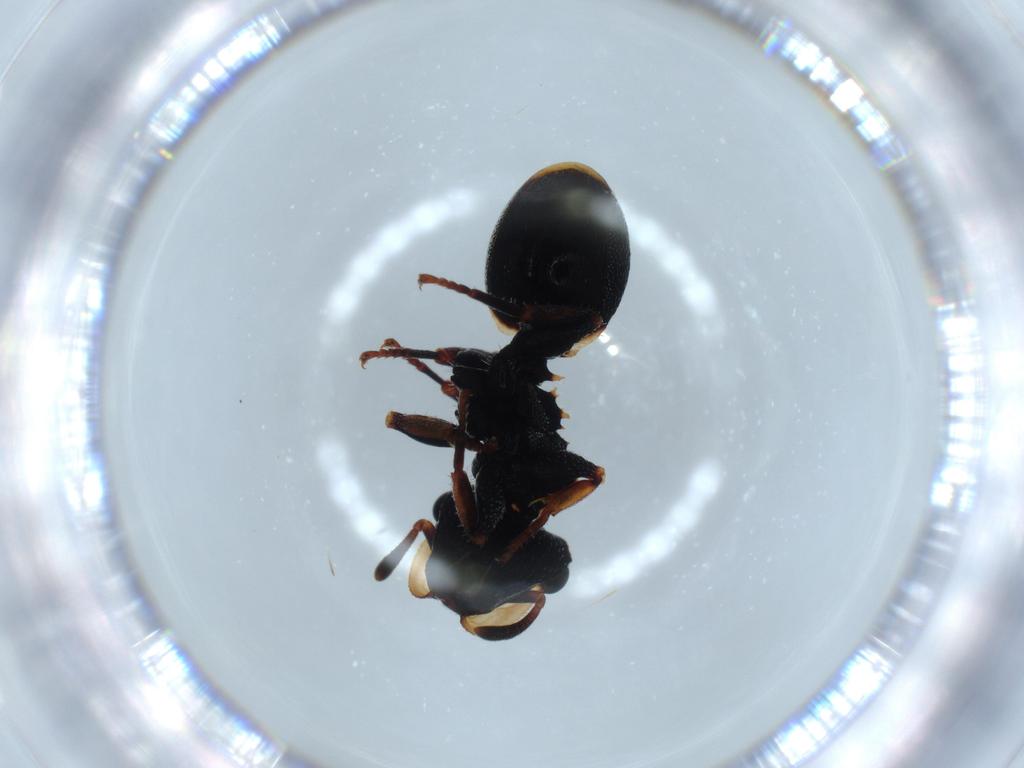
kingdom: Animalia
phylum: Arthropoda
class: Insecta
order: Hymenoptera
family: Formicidae
